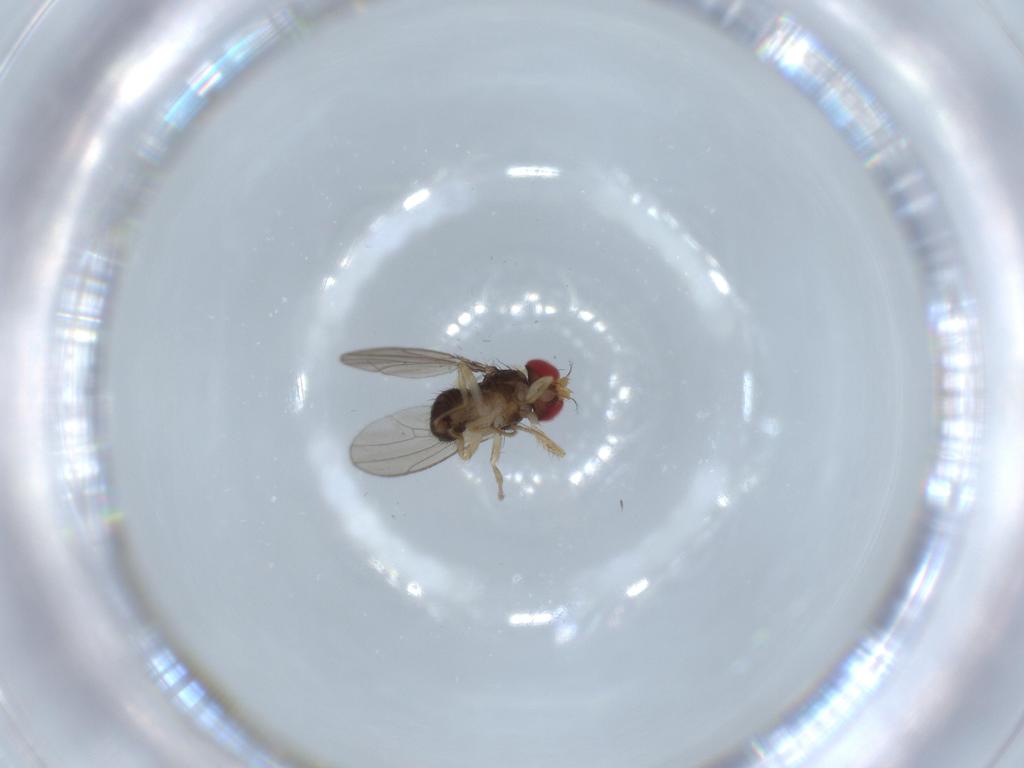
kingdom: Animalia
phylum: Arthropoda
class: Insecta
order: Diptera
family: Drosophilidae
